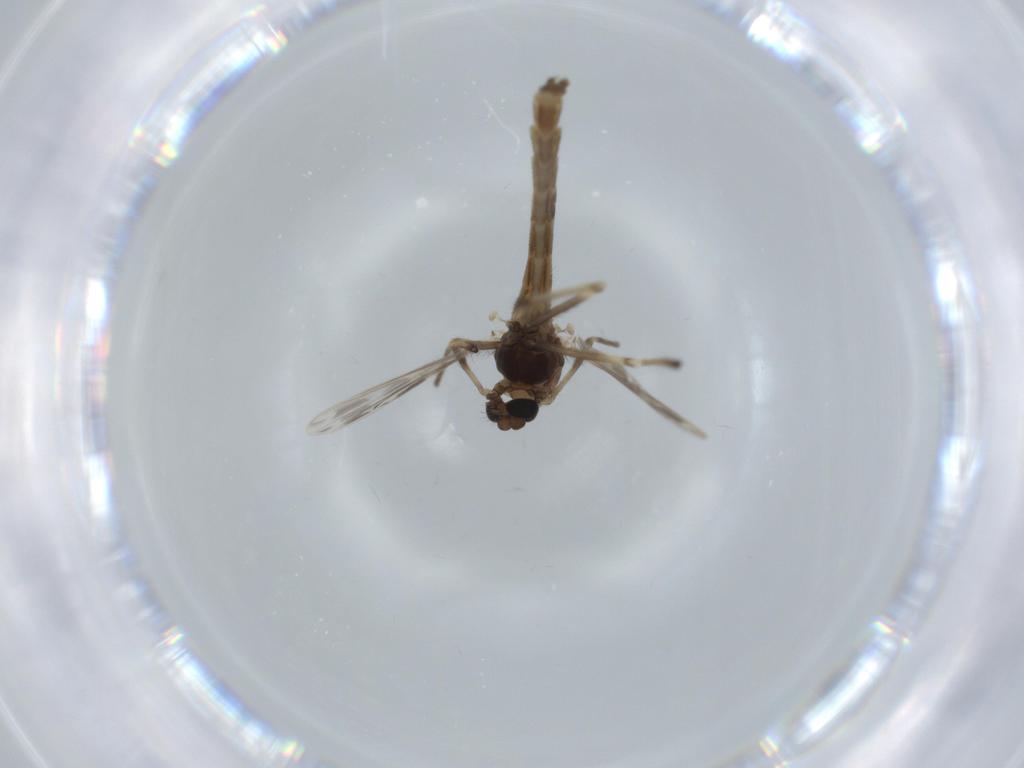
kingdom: Animalia
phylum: Arthropoda
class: Insecta
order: Diptera
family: Chironomidae
